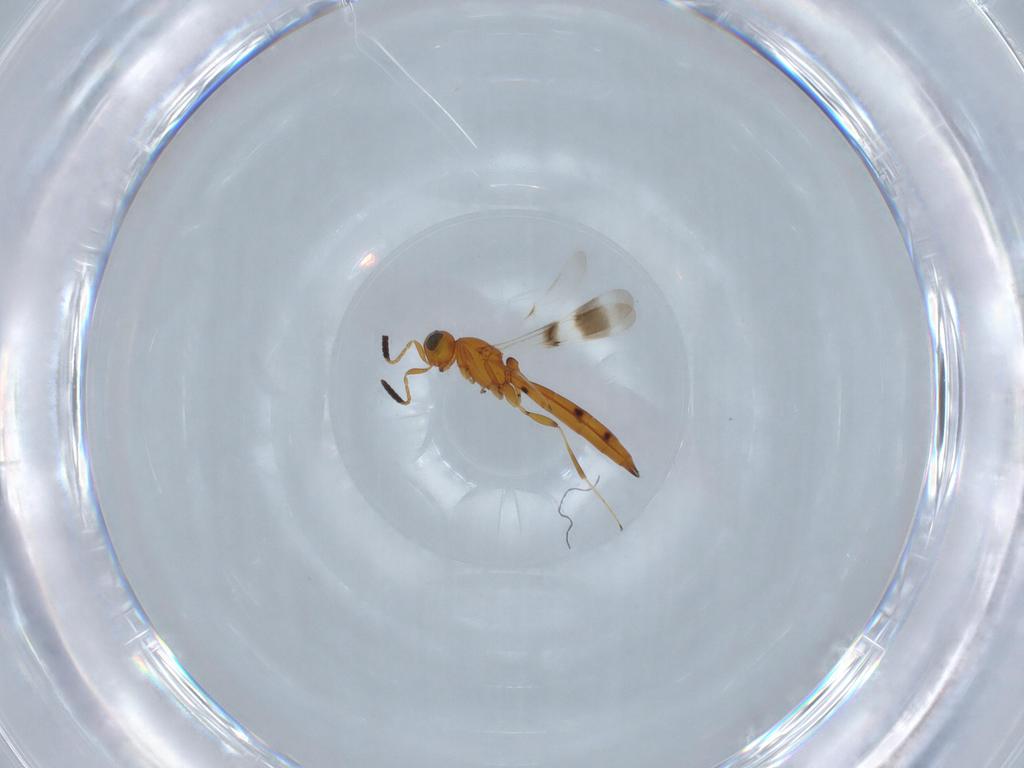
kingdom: Animalia
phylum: Arthropoda
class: Insecta
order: Hymenoptera
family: Scelionidae
